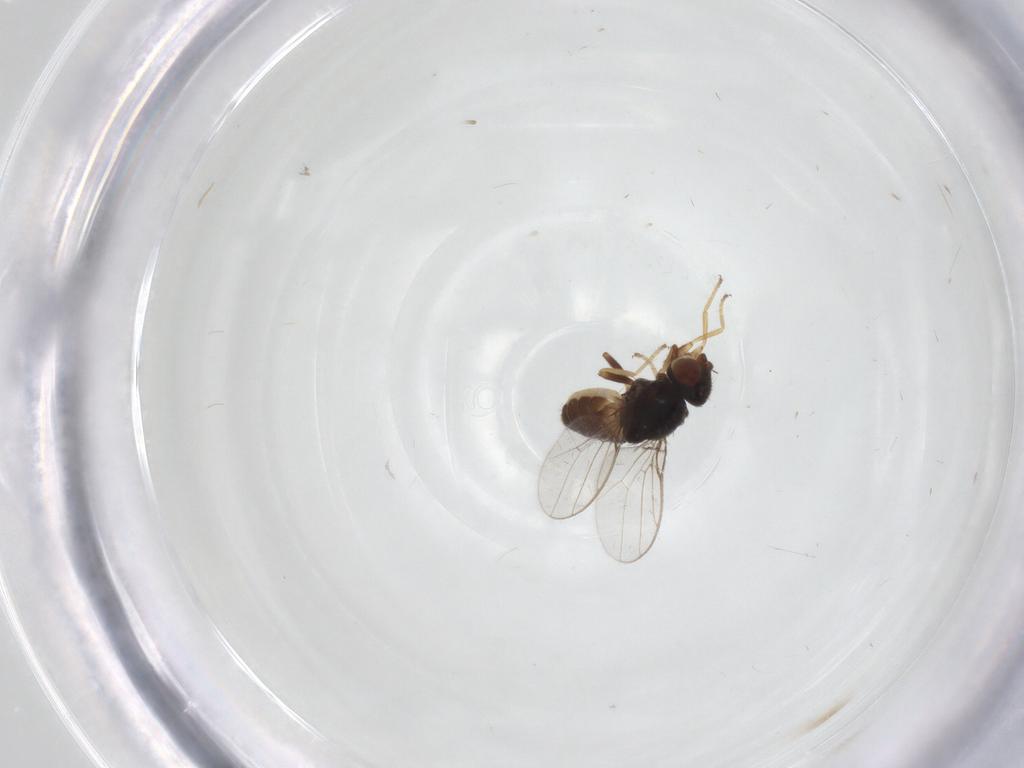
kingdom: Animalia
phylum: Arthropoda
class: Insecta
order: Diptera
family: Chloropidae
